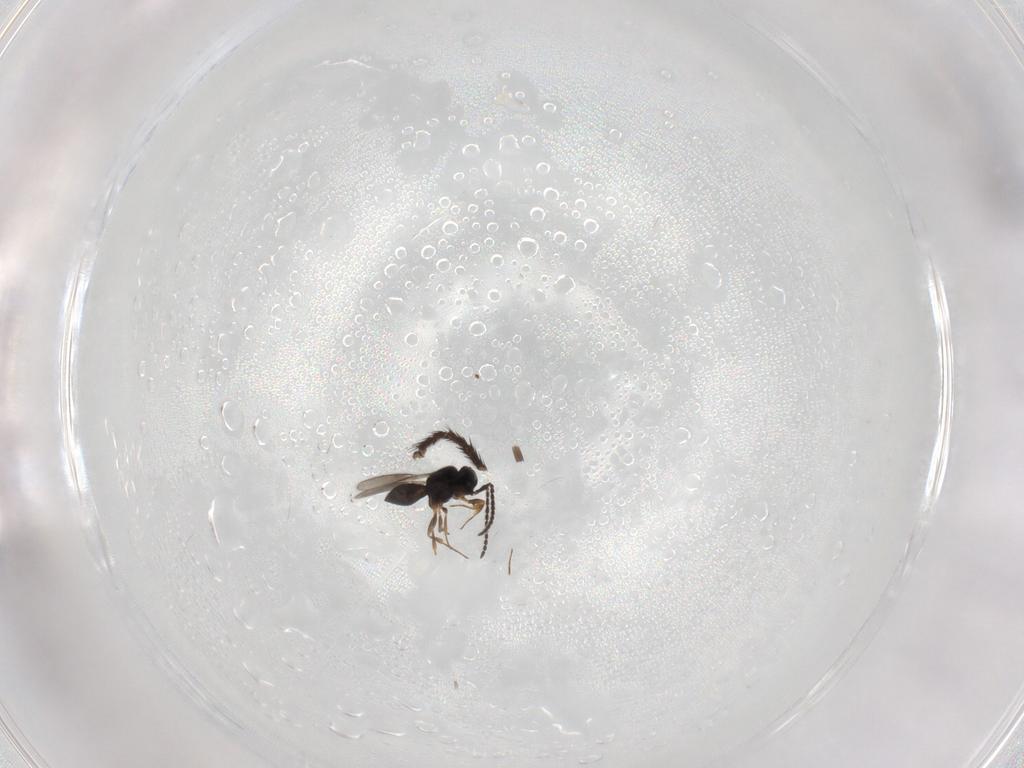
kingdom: Animalia
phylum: Arthropoda
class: Insecta
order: Hymenoptera
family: Scelionidae
